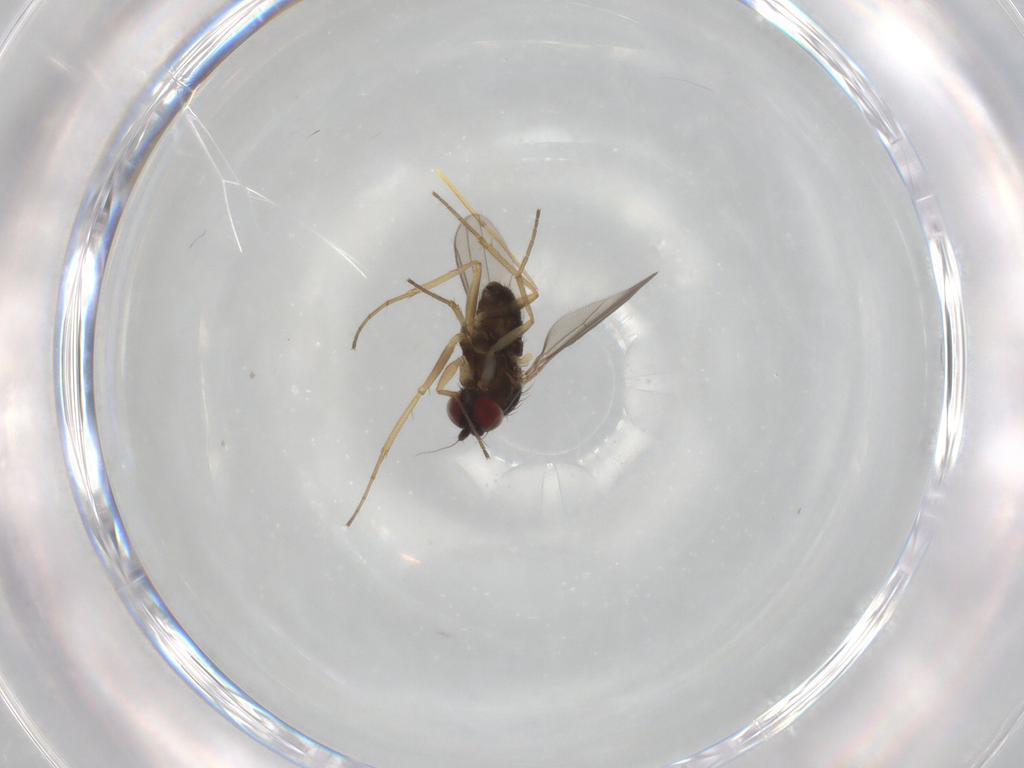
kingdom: Animalia
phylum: Arthropoda
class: Insecta
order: Diptera
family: Dolichopodidae
